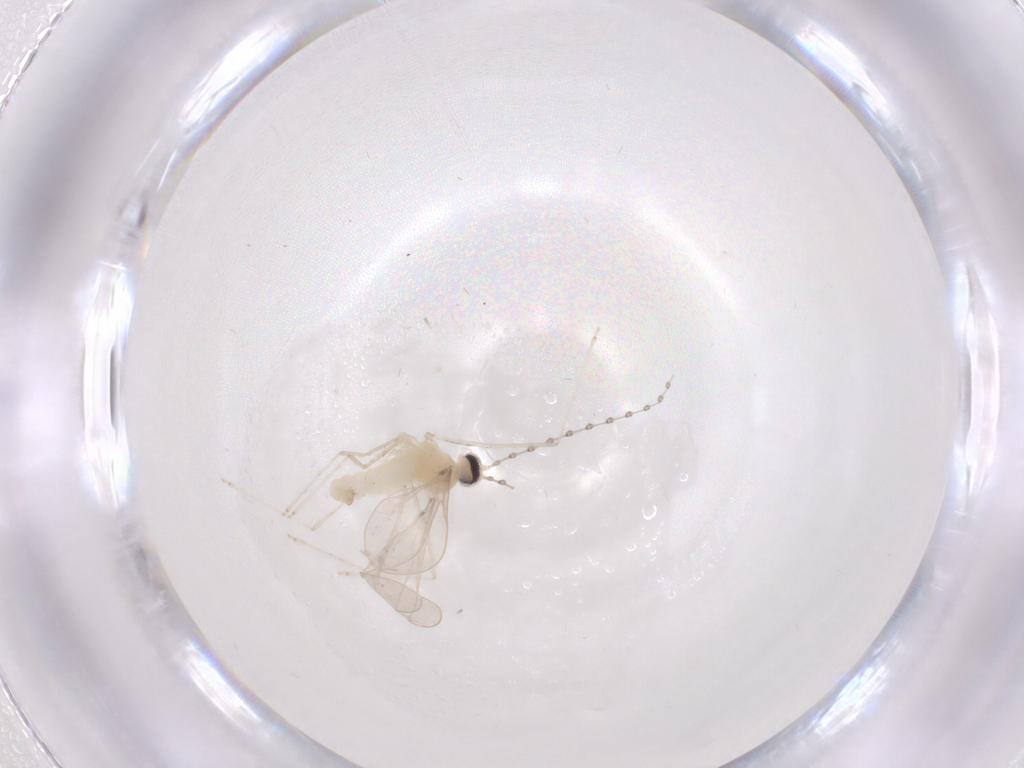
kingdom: Animalia
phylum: Arthropoda
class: Insecta
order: Diptera
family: Cecidomyiidae
